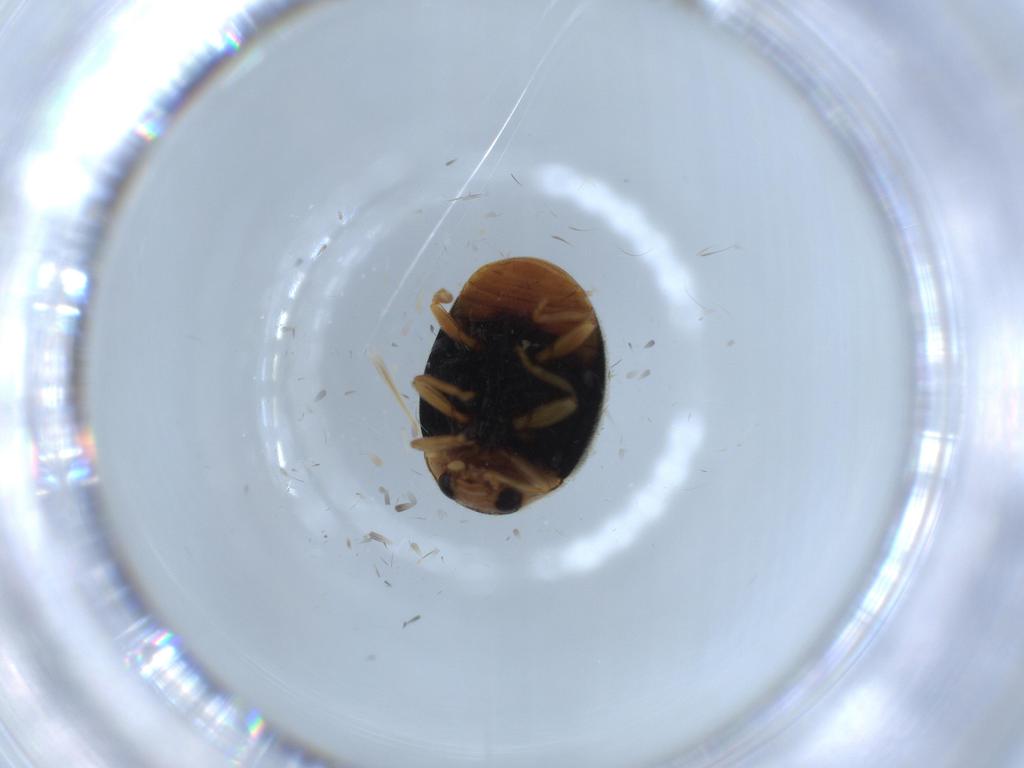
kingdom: Animalia
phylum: Arthropoda
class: Insecta
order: Coleoptera
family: Coccinellidae
